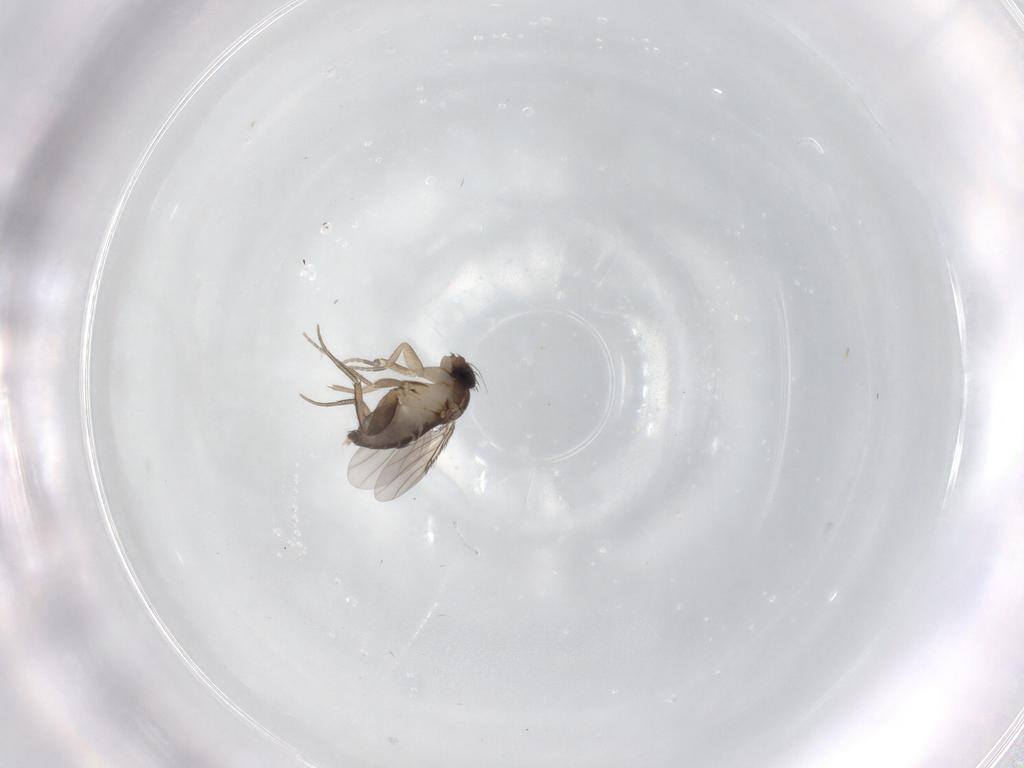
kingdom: Animalia
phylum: Arthropoda
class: Insecta
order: Diptera
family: Phoridae
